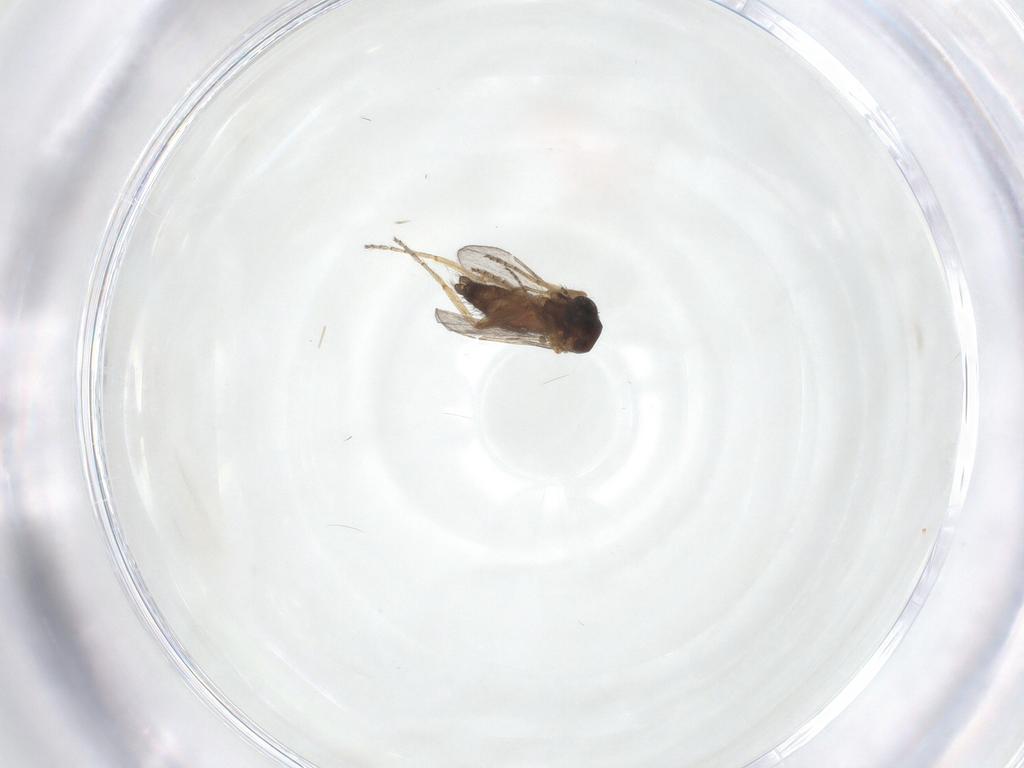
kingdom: Animalia
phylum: Arthropoda
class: Insecta
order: Diptera
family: Ceratopogonidae
